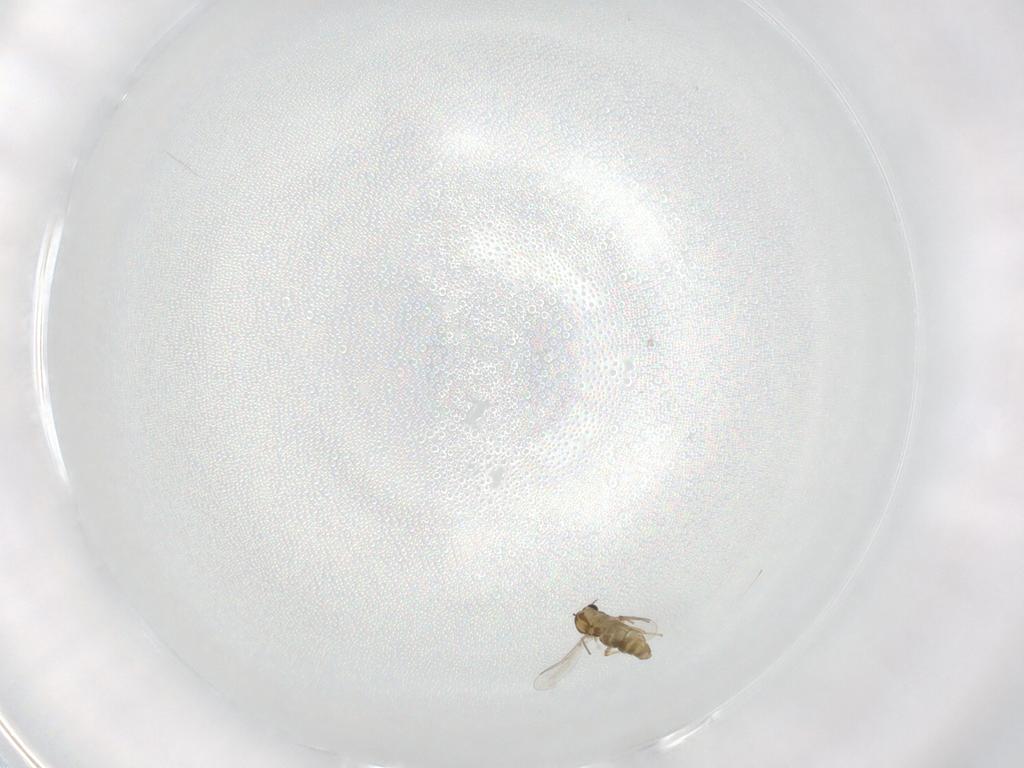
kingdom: Animalia
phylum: Arthropoda
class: Insecta
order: Diptera
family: Chironomidae
